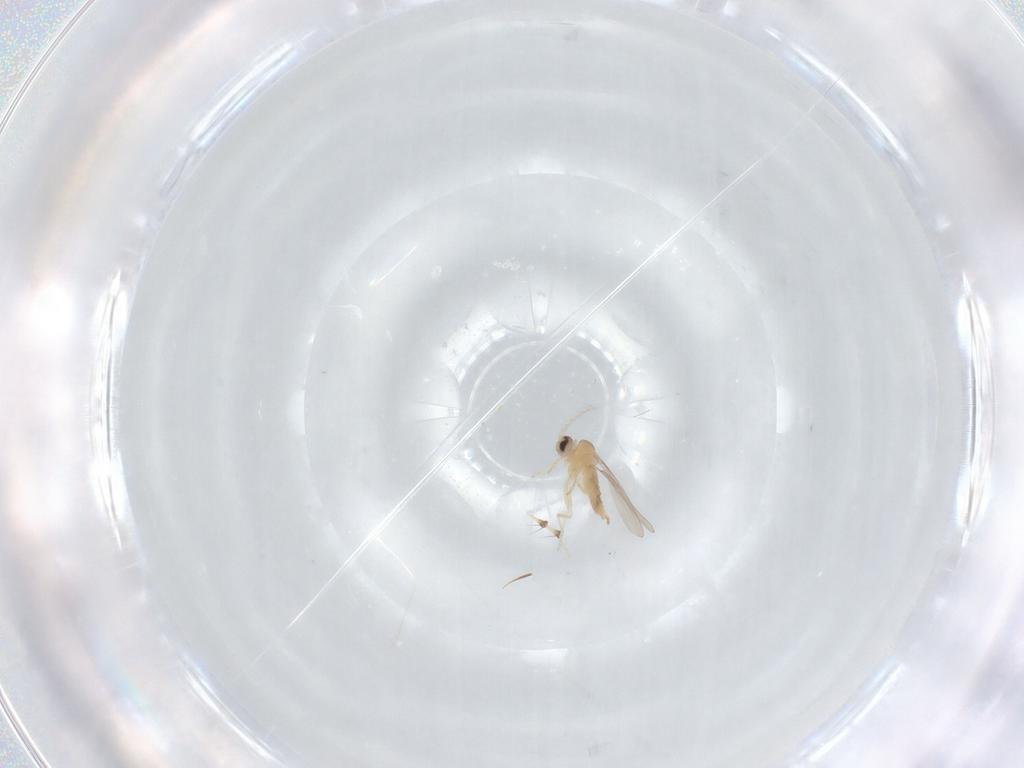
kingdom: Animalia
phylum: Arthropoda
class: Insecta
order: Diptera
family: Cecidomyiidae
